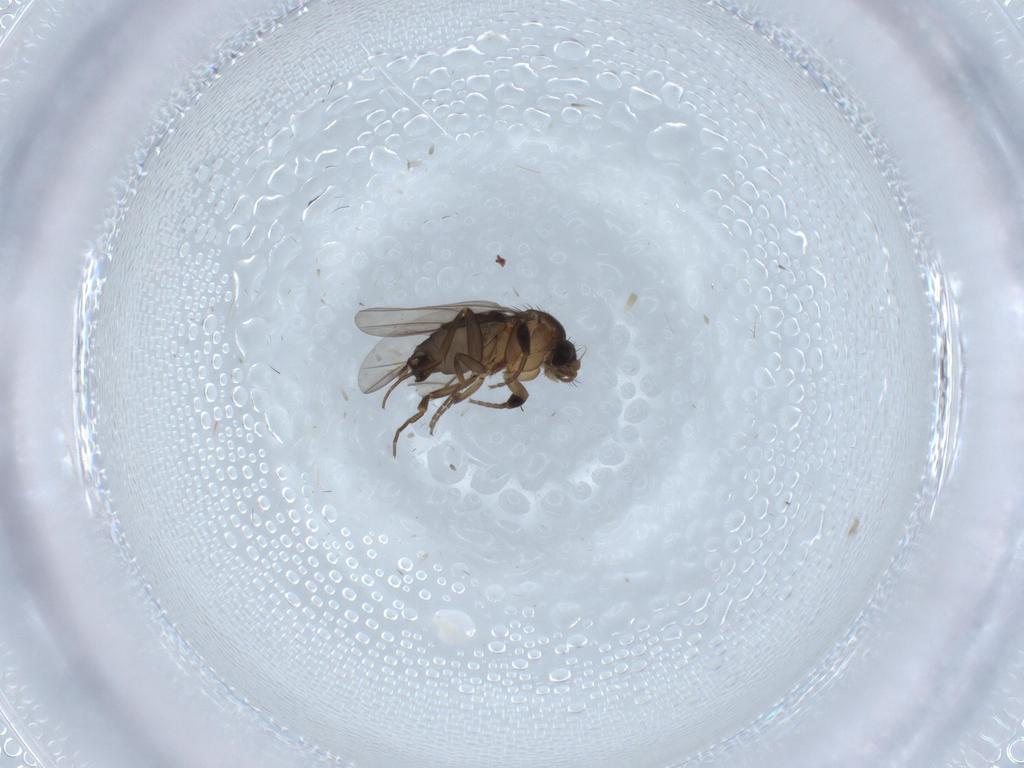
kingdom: Animalia
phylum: Arthropoda
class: Insecta
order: Diptera
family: Phoridae
